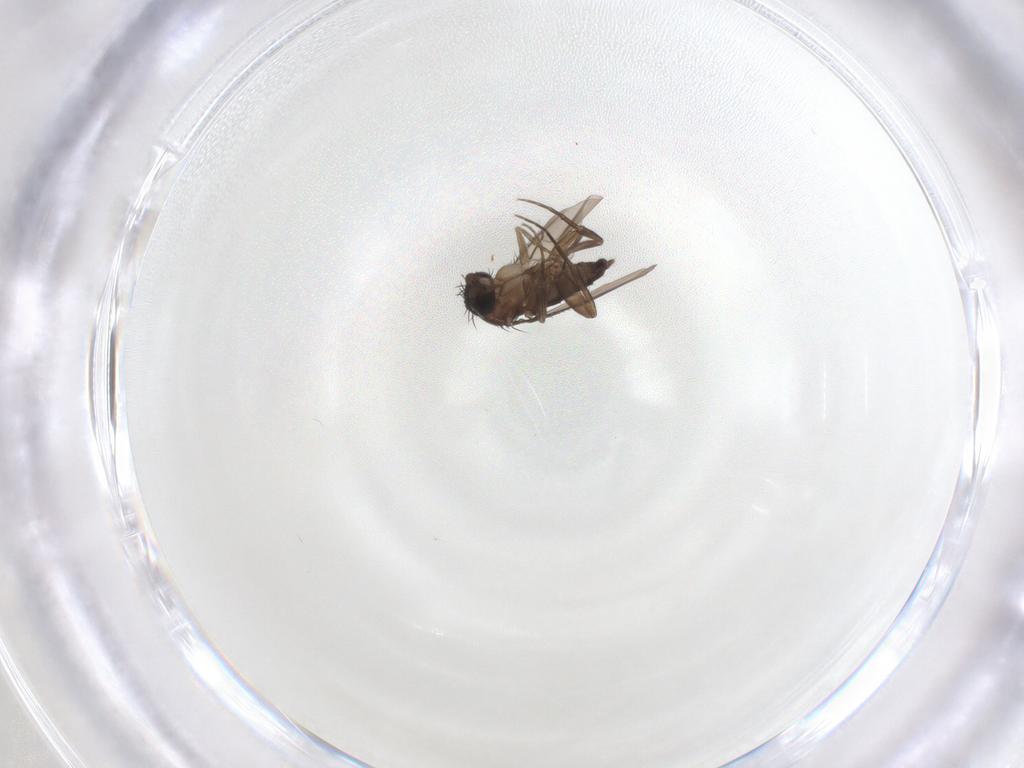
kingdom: Animalia
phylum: Arthropoda
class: Insecta
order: Diptera
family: Phoridae
